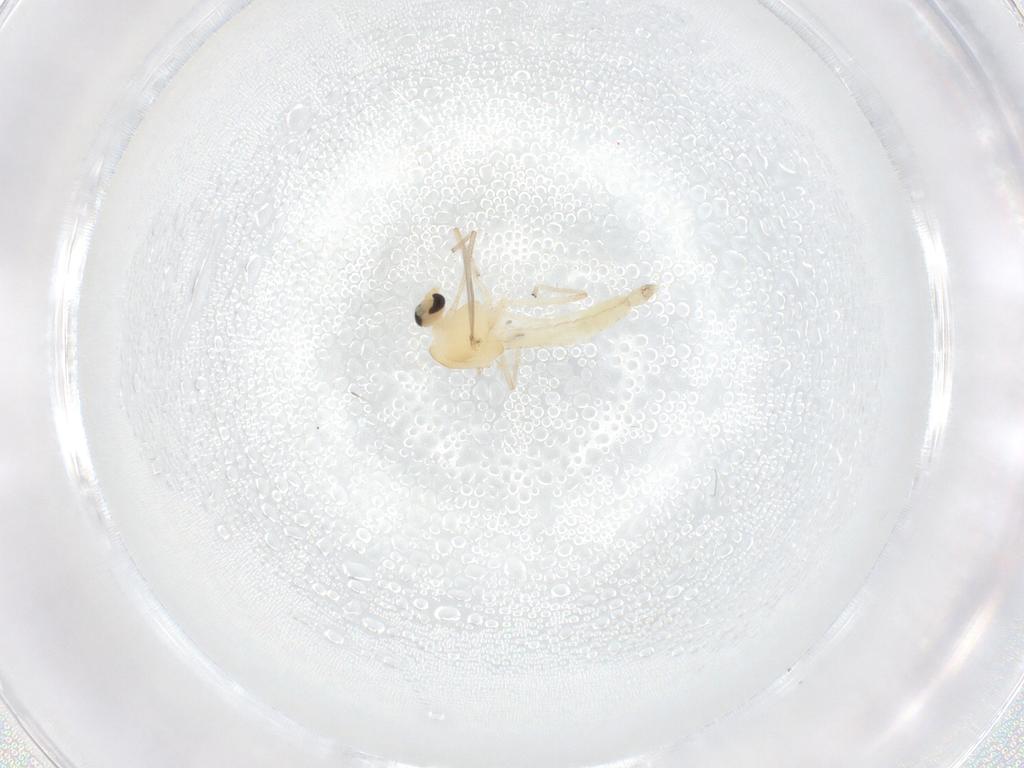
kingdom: Animalia
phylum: Arthropoda
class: Insecta
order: Diptera
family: Chironomidae
